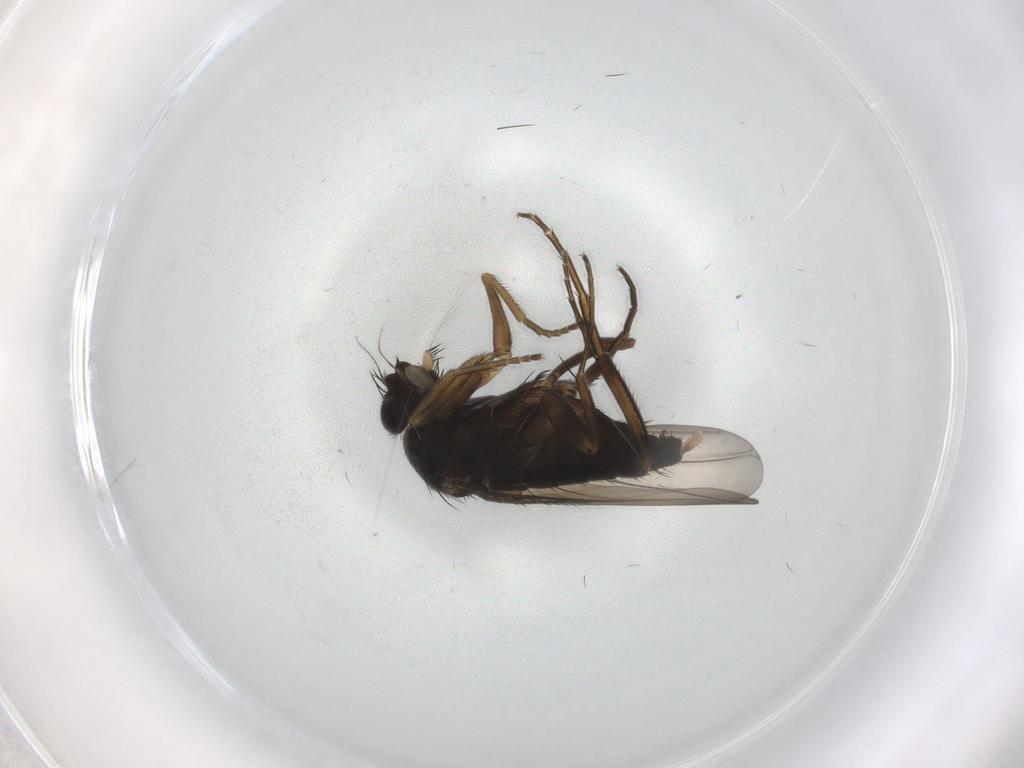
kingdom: Animalia
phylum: Arthropoda
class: Insecta
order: Diptera
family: Phoridae
